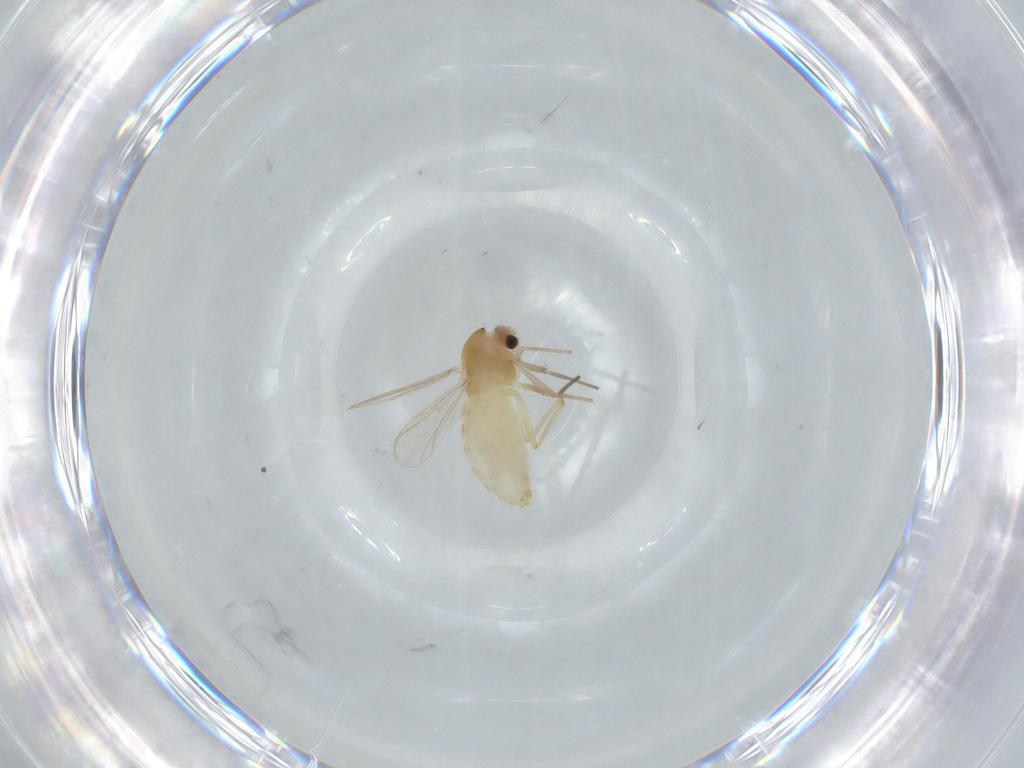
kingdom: Animalia
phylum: Arthropoda
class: Insecta
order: Diptera
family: Chironomidae
